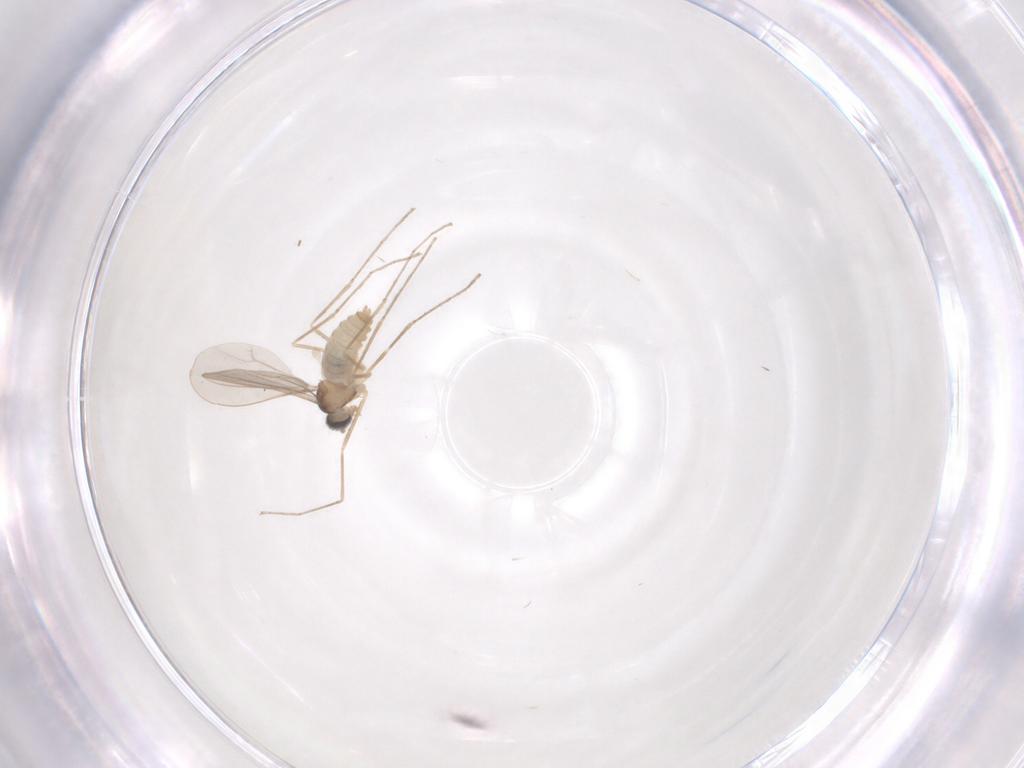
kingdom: Animalia
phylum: Arthropoda
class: Insecta
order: Diptera
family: Cecidomyiidae
